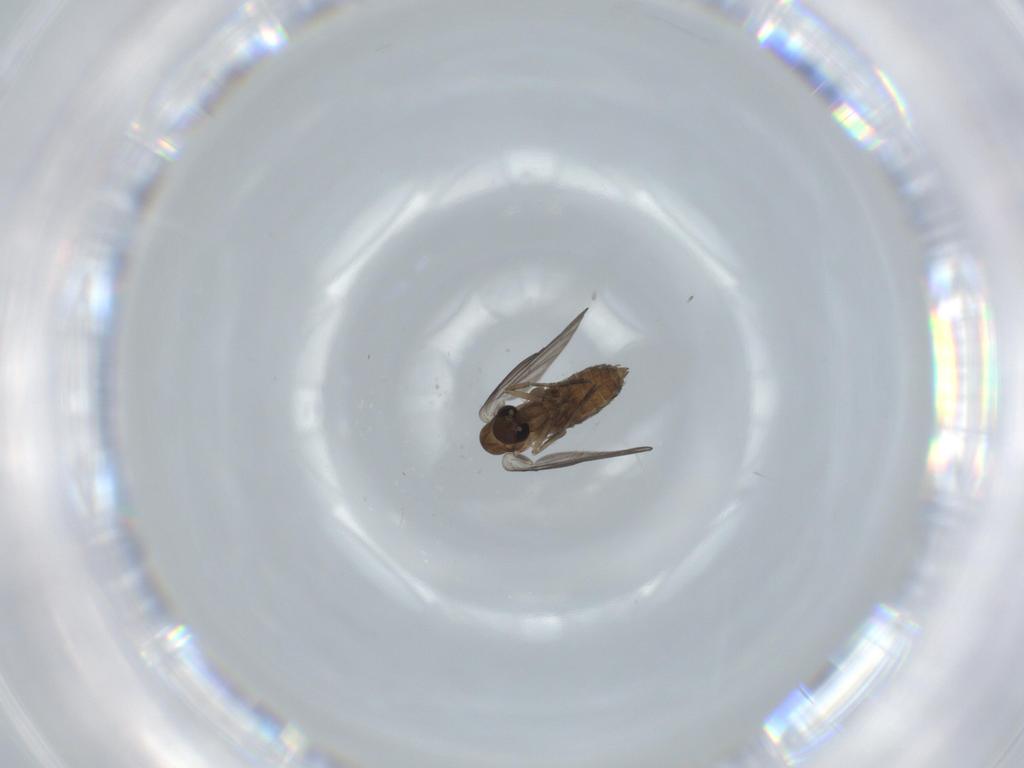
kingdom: Animalia
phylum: Arthropoda
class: Insecta
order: Diptera
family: Psychodidae
